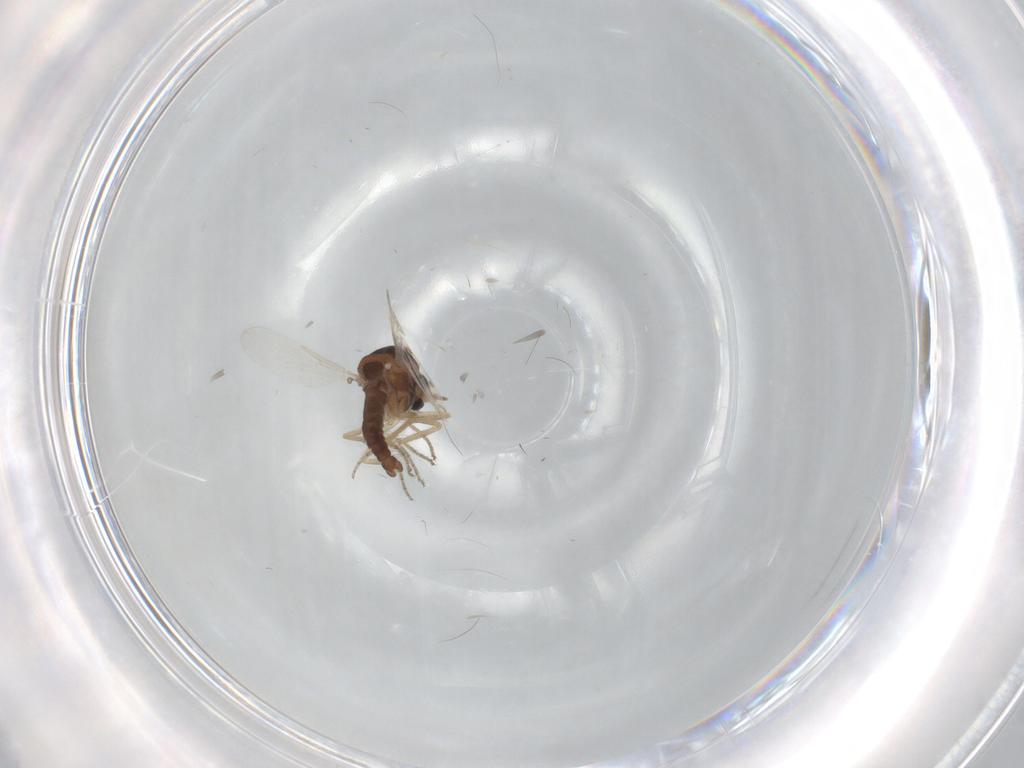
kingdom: Animalia
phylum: Arthropoda
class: Insecta
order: Diptera
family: Ceratopogonidae
